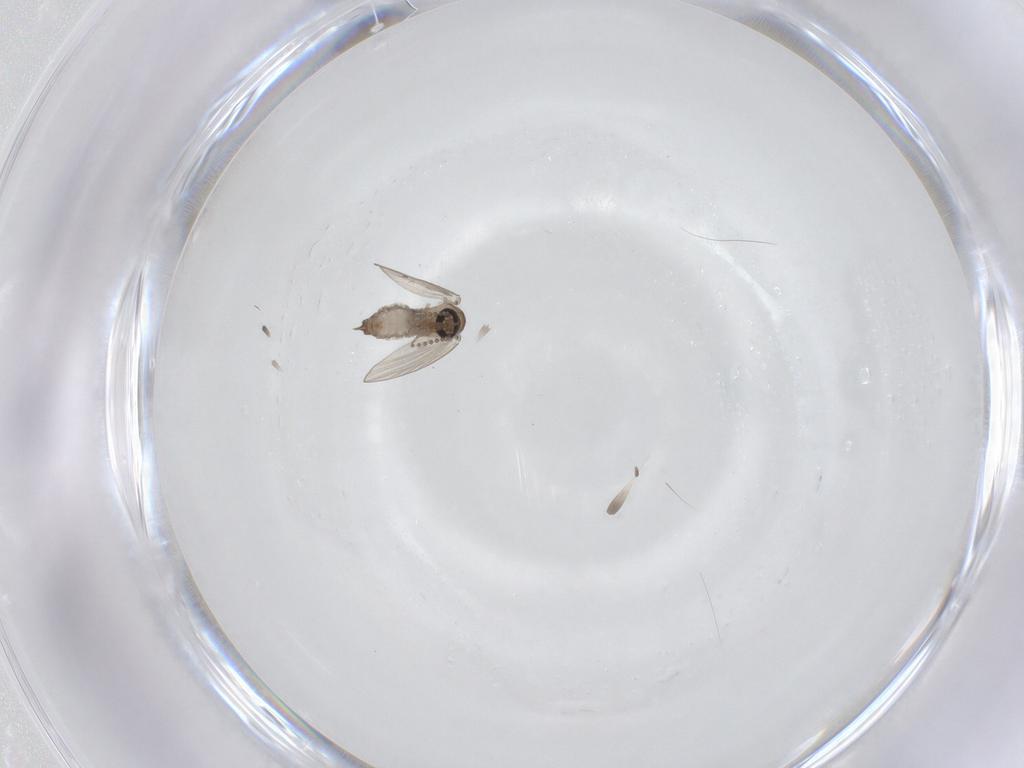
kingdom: Animalia
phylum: Arthropoda
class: Insecta
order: Diptera
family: Psychodidae
